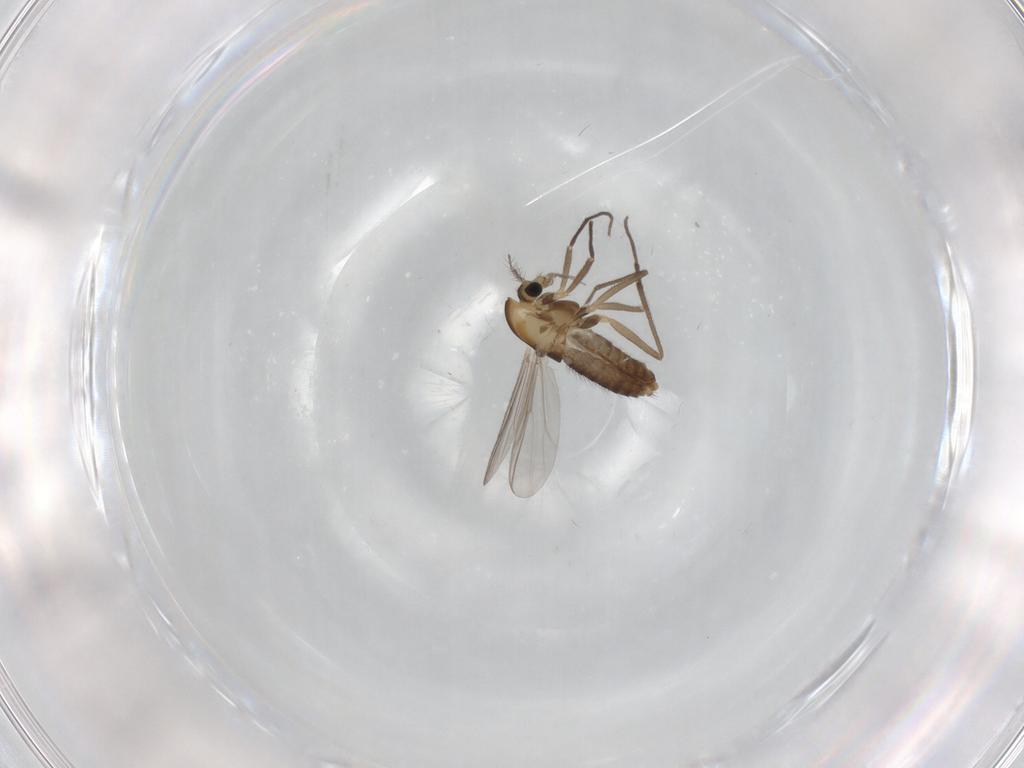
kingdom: Animalia
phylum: Arthropoda
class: Insecta
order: Diptera
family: Chironomidae
